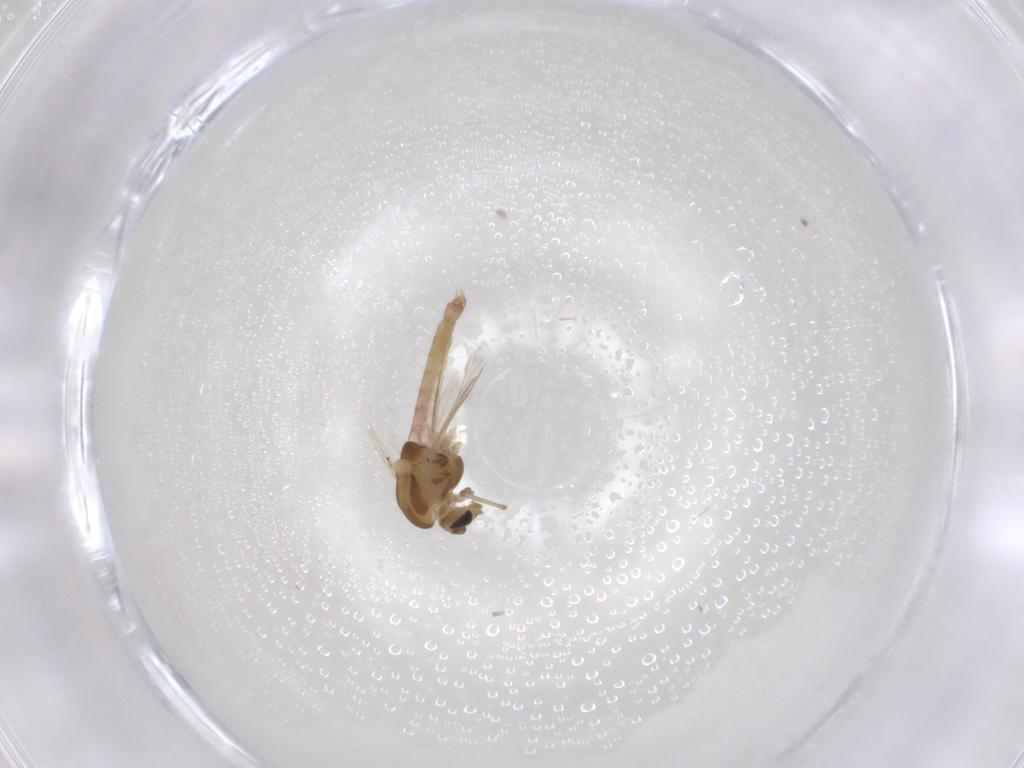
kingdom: Animalia
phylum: Arthropoda
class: Insecta
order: Diptera
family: Chironomidae
